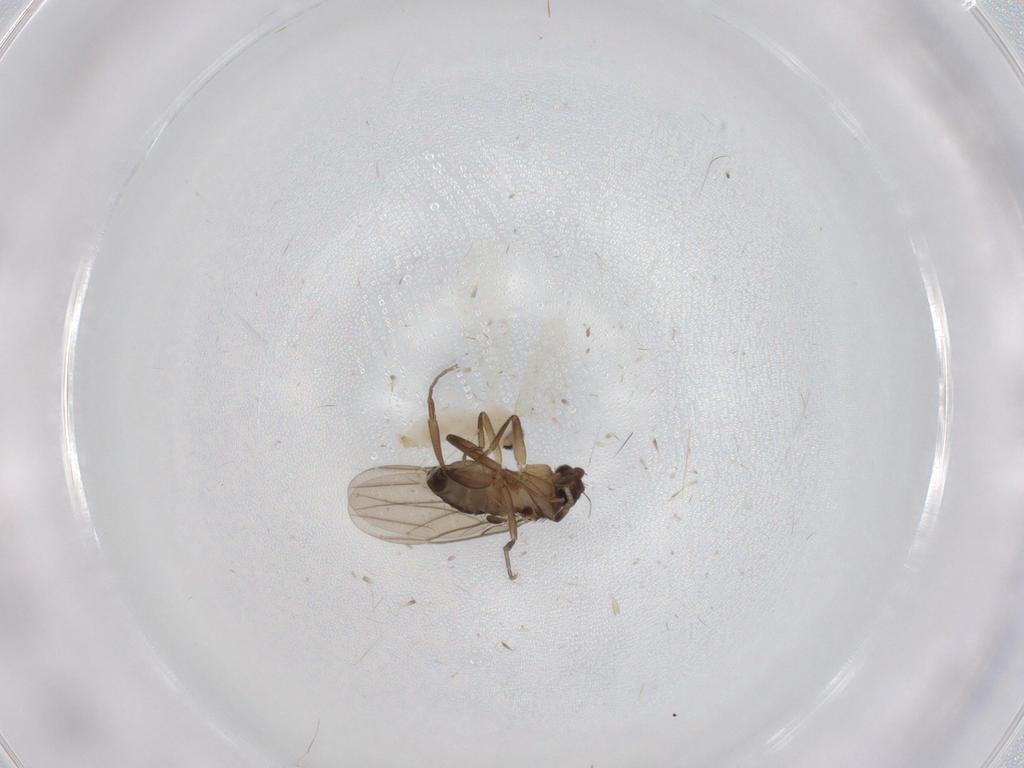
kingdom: Animalia
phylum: Arthropoda
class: Insecta
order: Diptera
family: Phoridae
